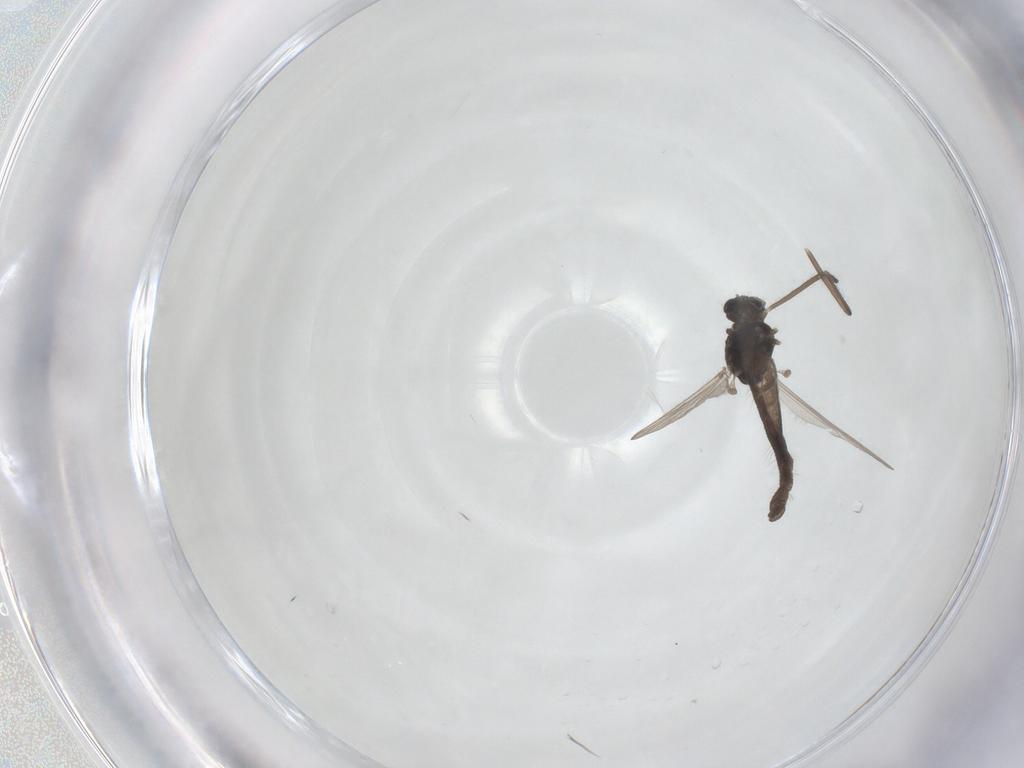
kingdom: Animalia
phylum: Arthropoda
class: Insecta
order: Diptera
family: Chironomidae
